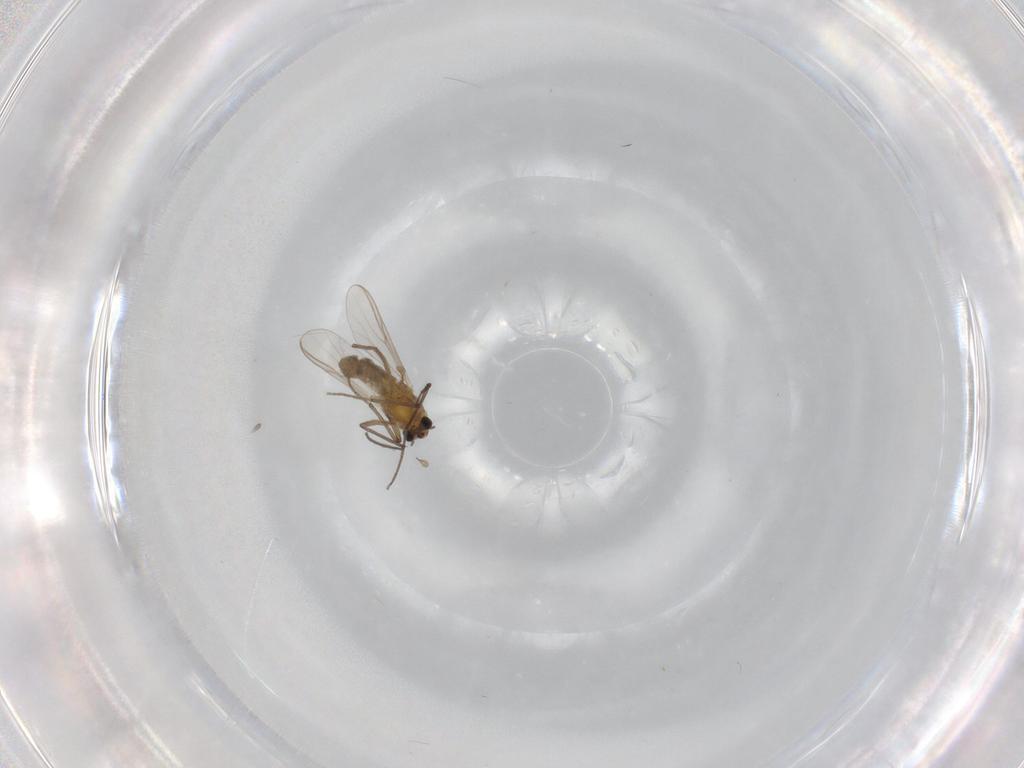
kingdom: Animalia
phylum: Arthropoda
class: Insecta
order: Diptera
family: Chironomidae
